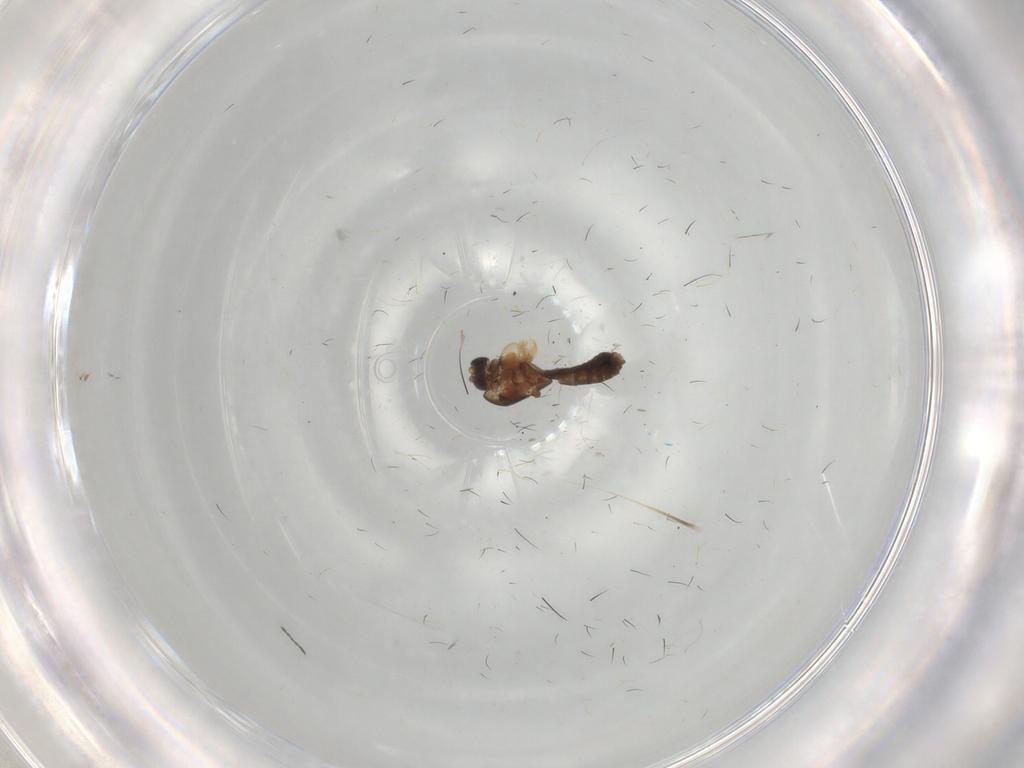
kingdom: Animalia
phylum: Arthropoda
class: Insecta
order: Diptera
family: Chironomidae
